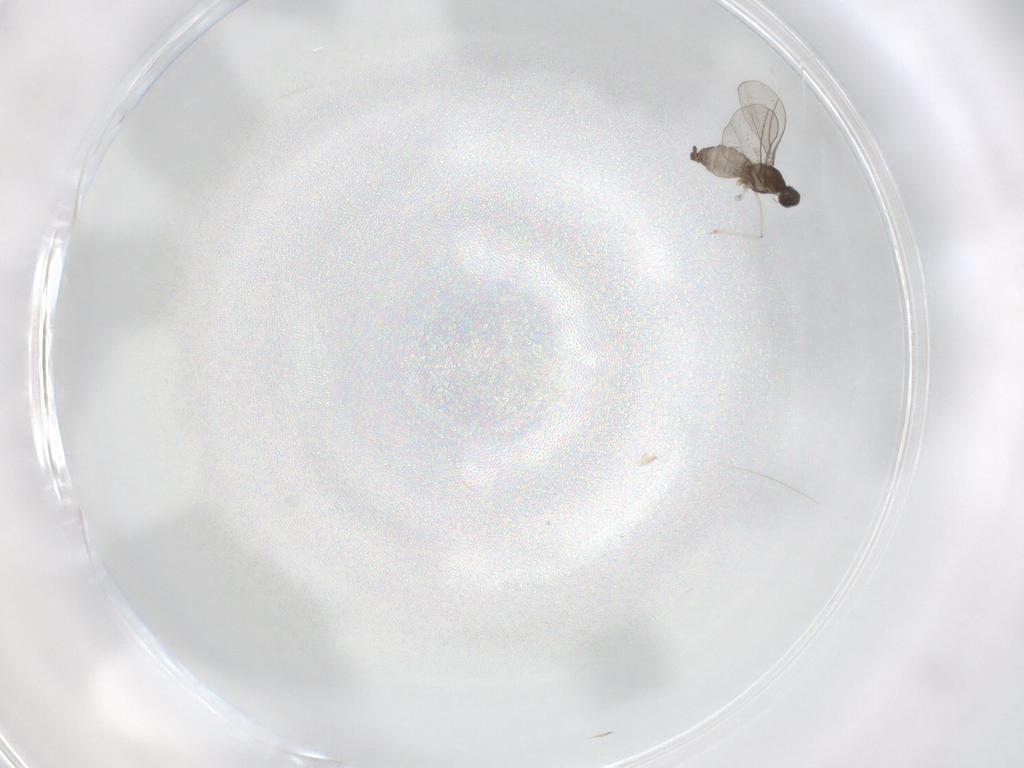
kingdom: Animalia
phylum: Arthropoda
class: Insecta
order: Diptera
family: Cecidomyiidae
